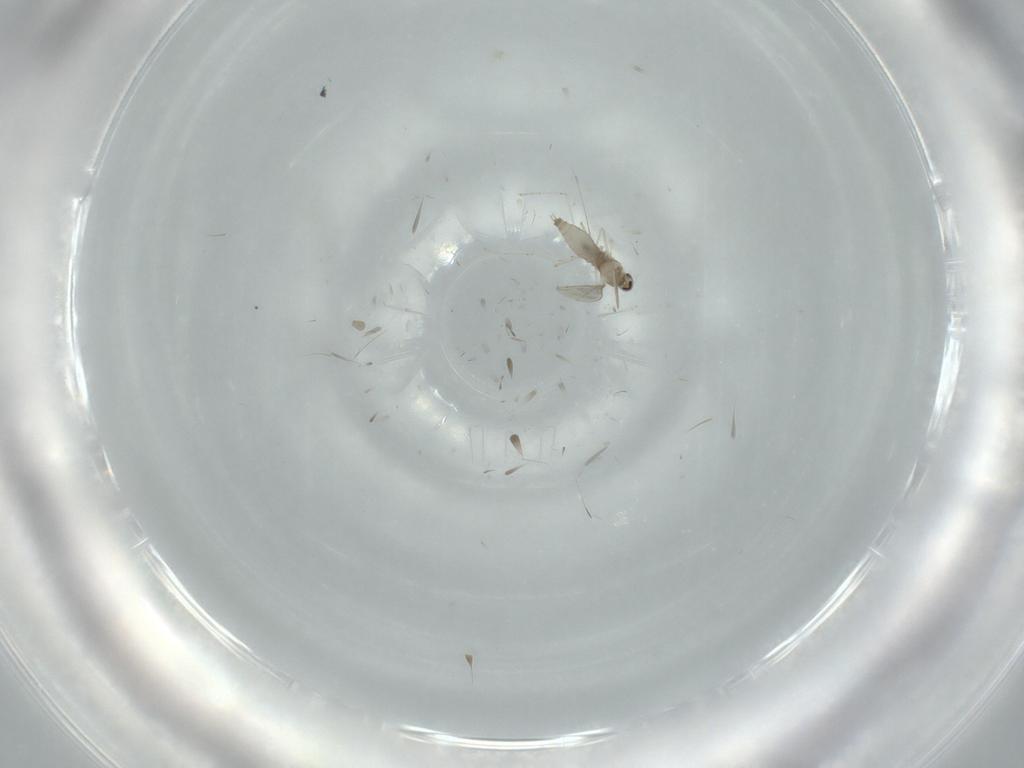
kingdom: Animalia
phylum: Arthropoda
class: Insecta
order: Diptera
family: Cecidomyiidae
